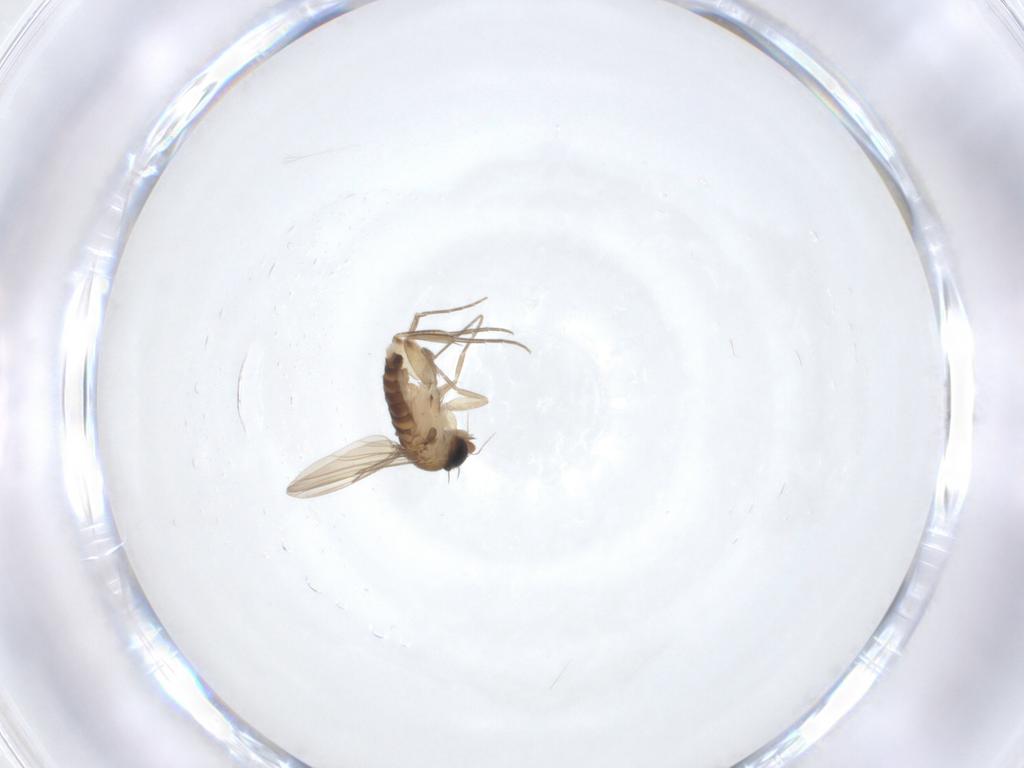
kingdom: Animalia
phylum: Arthropoda
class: Insecta
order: Diptera
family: Phoridae
